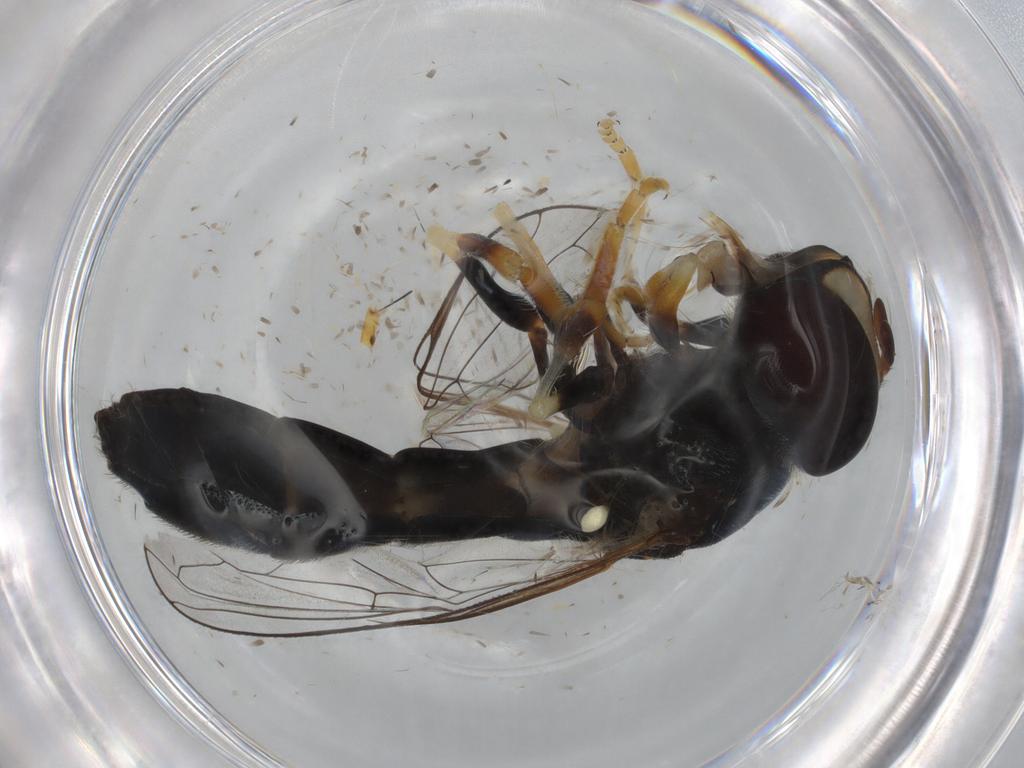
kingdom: Animalia
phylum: Arthropoda
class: Insecta
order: Diptera
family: Syrphidae
